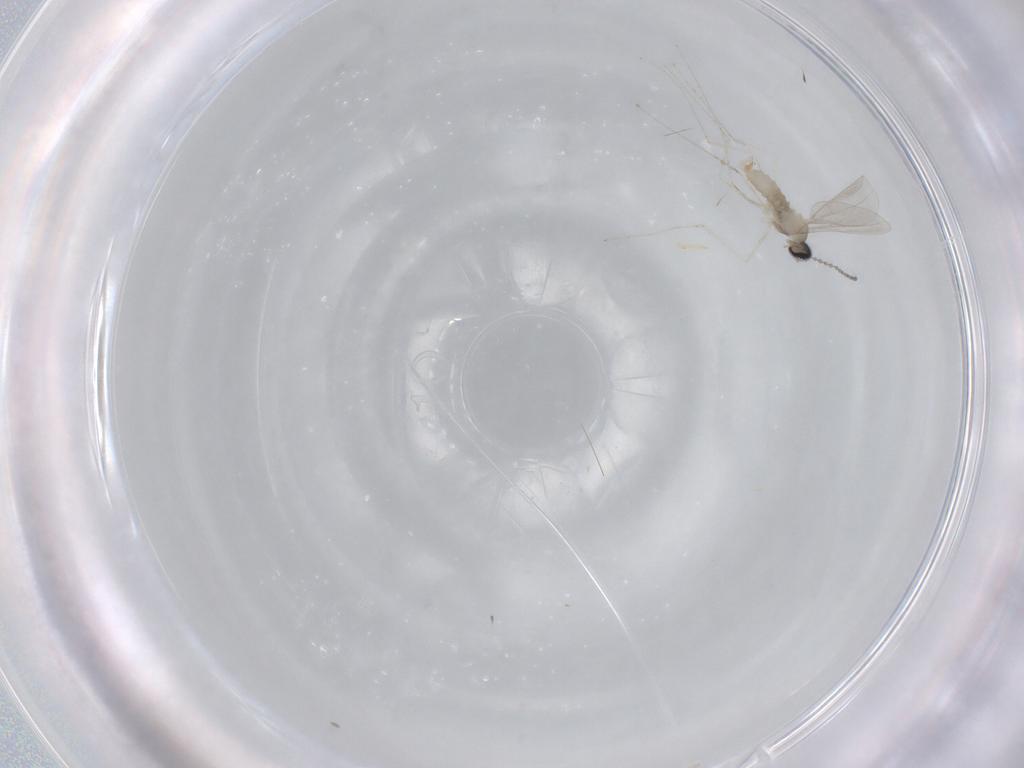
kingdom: Animalia
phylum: Arthropoda
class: Insecta
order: Diptera
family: Cecidomyiidae
